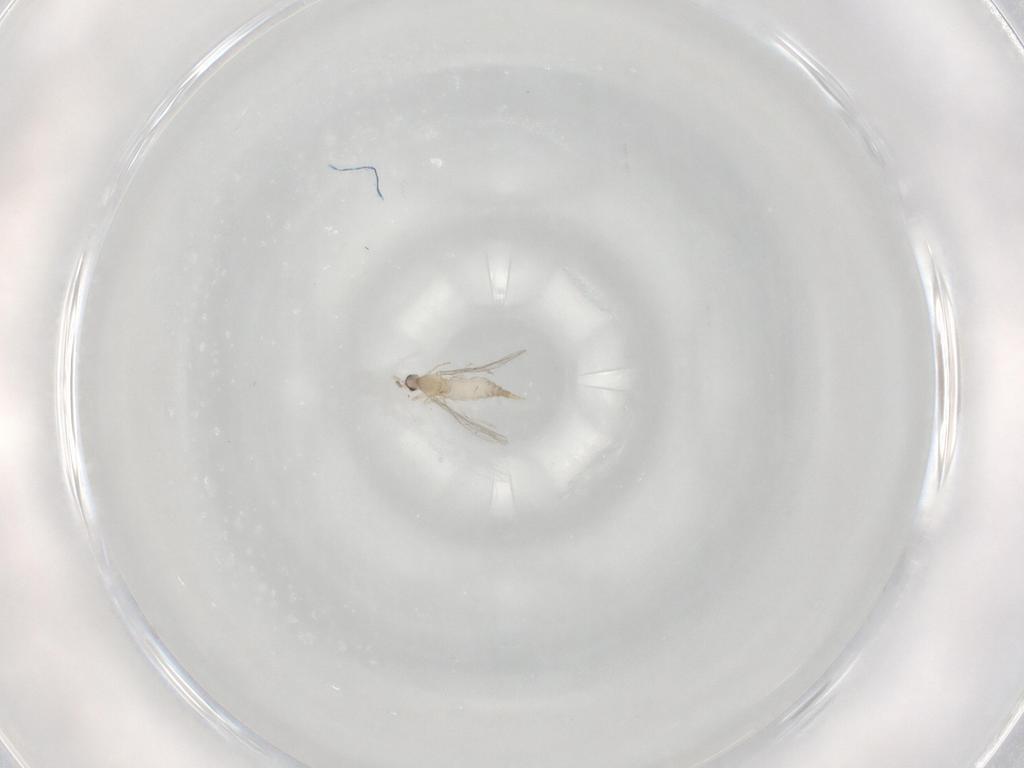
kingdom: Animalia
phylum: Arthropoda
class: Insecta
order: Diptera
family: Cecidomyiidae
